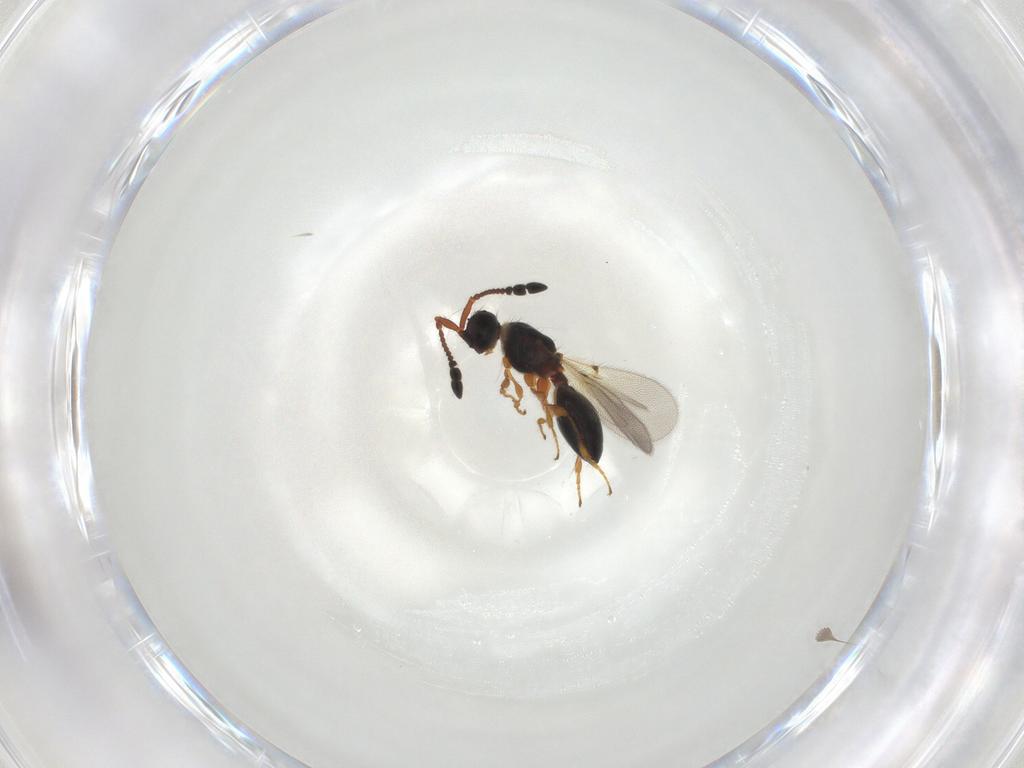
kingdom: Animalia
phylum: Arthropoda
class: Insecta
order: Hymenoptera
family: Diapriidae
